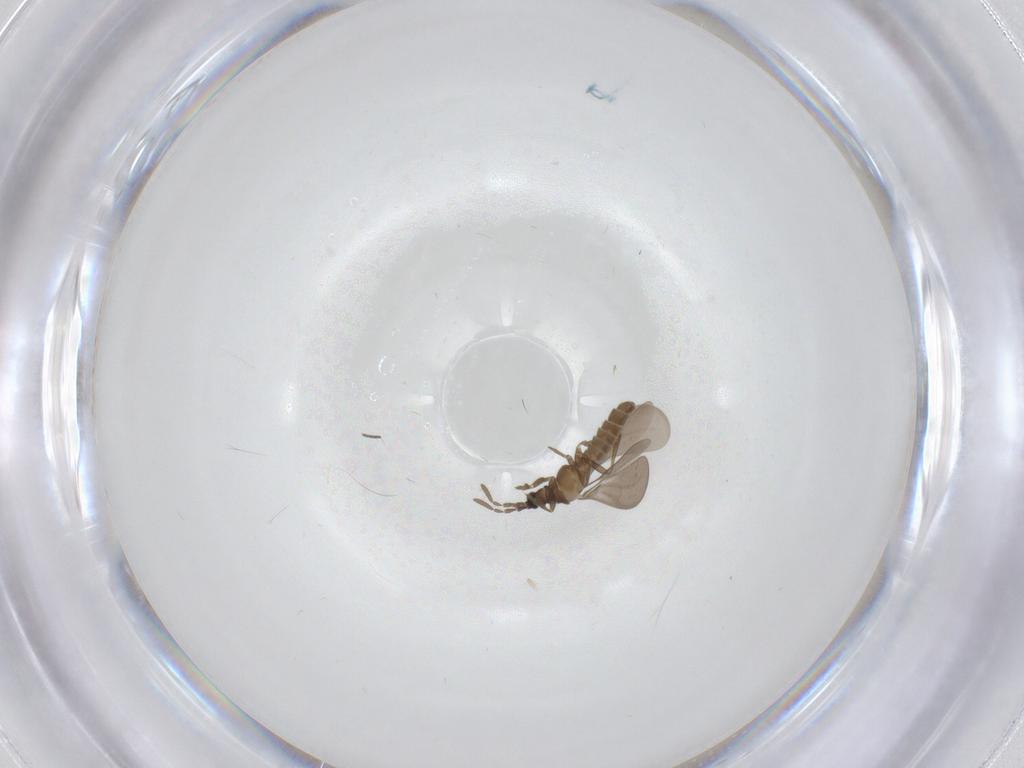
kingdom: Animalia
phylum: Arthropoda
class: Insecta
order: Hemiptera
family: Enicocephalidae
